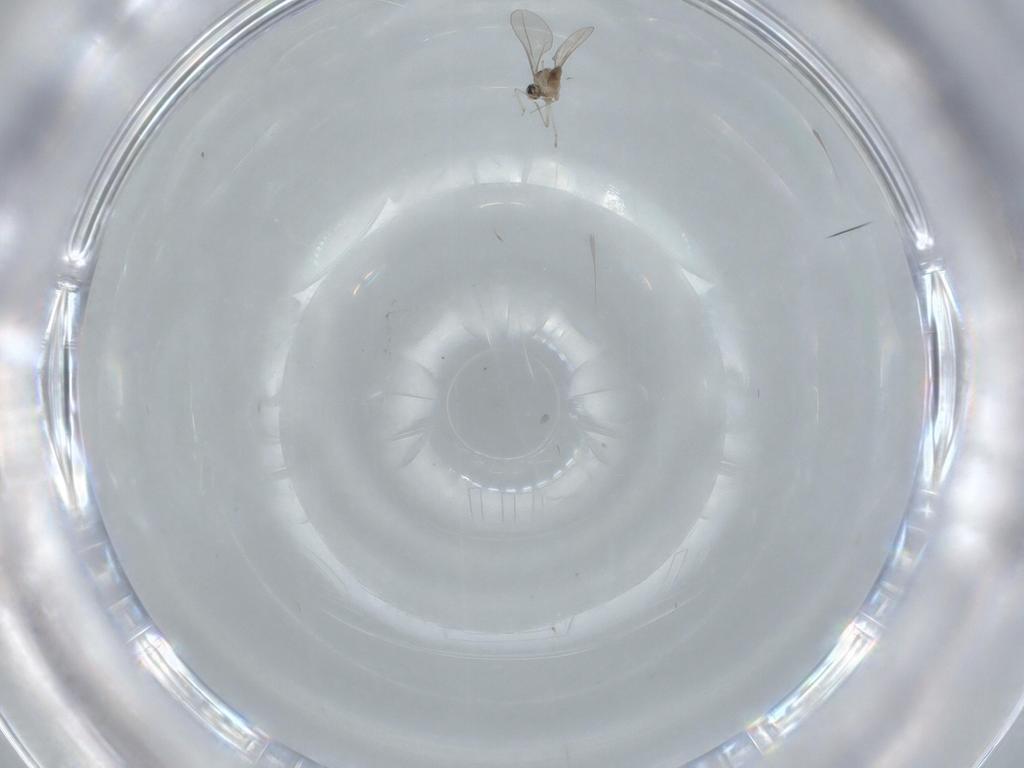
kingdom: Animalia
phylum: Arthropoda
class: Insecta
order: Diptera
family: Cecidomyiidae
